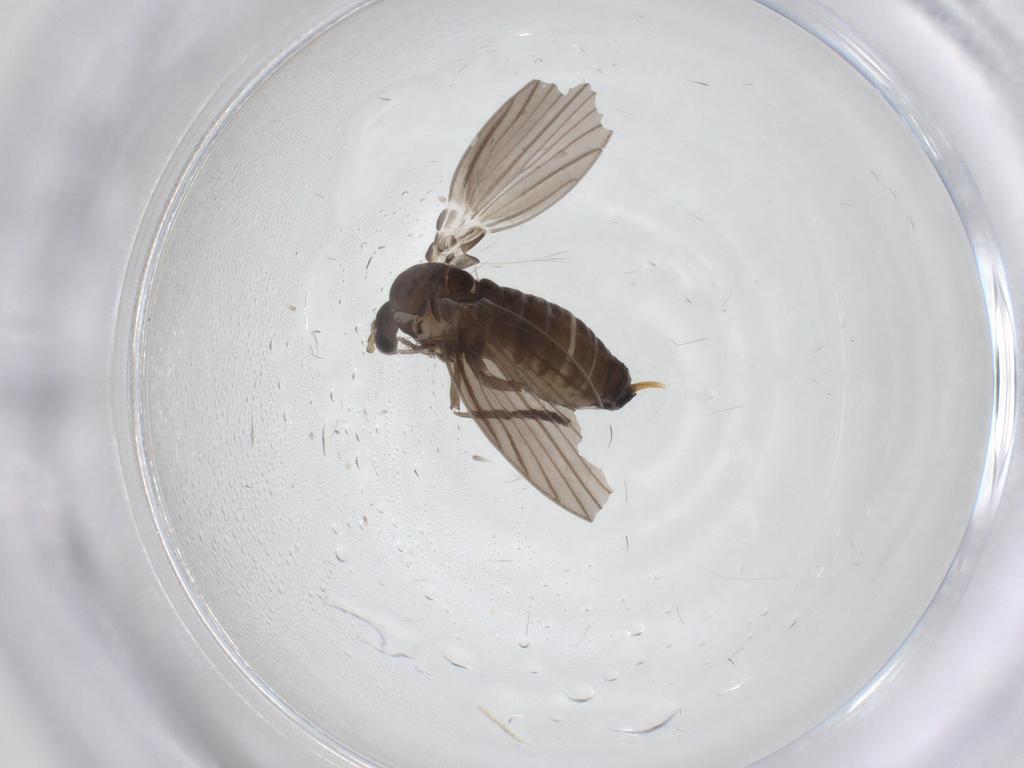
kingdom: Animalia
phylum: Arthropoda
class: Insecta
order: Diptera
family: Psychodidae
